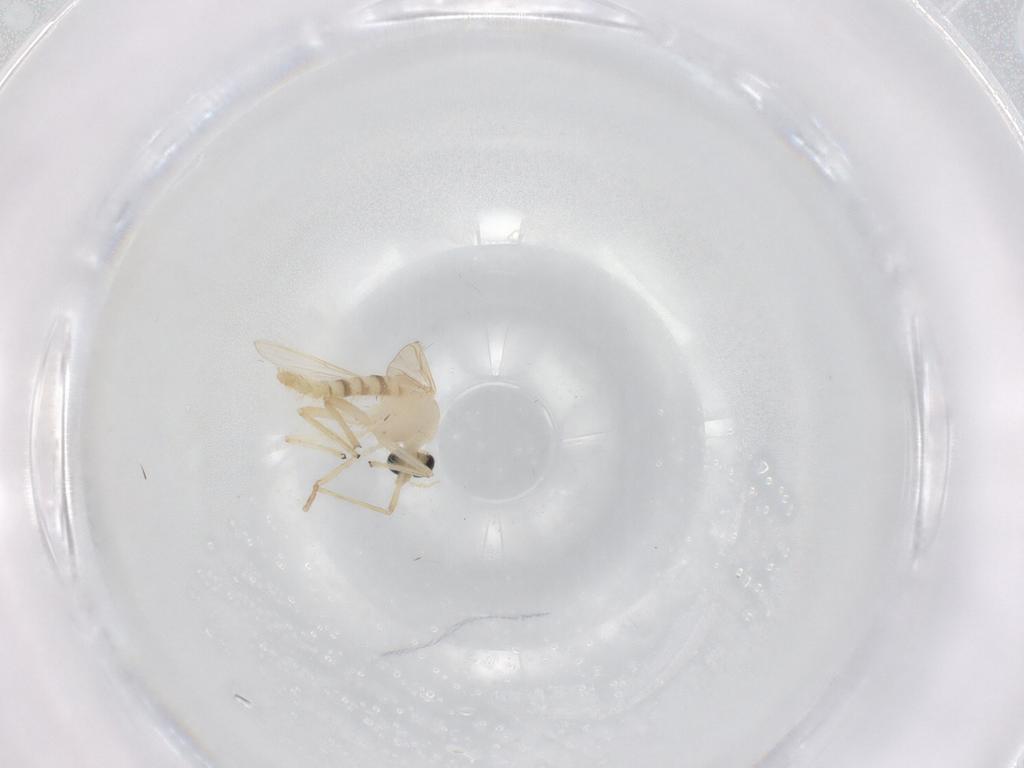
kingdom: Animalia
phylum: Arthropoda
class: Insecta
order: Diptera
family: Chironomidae
